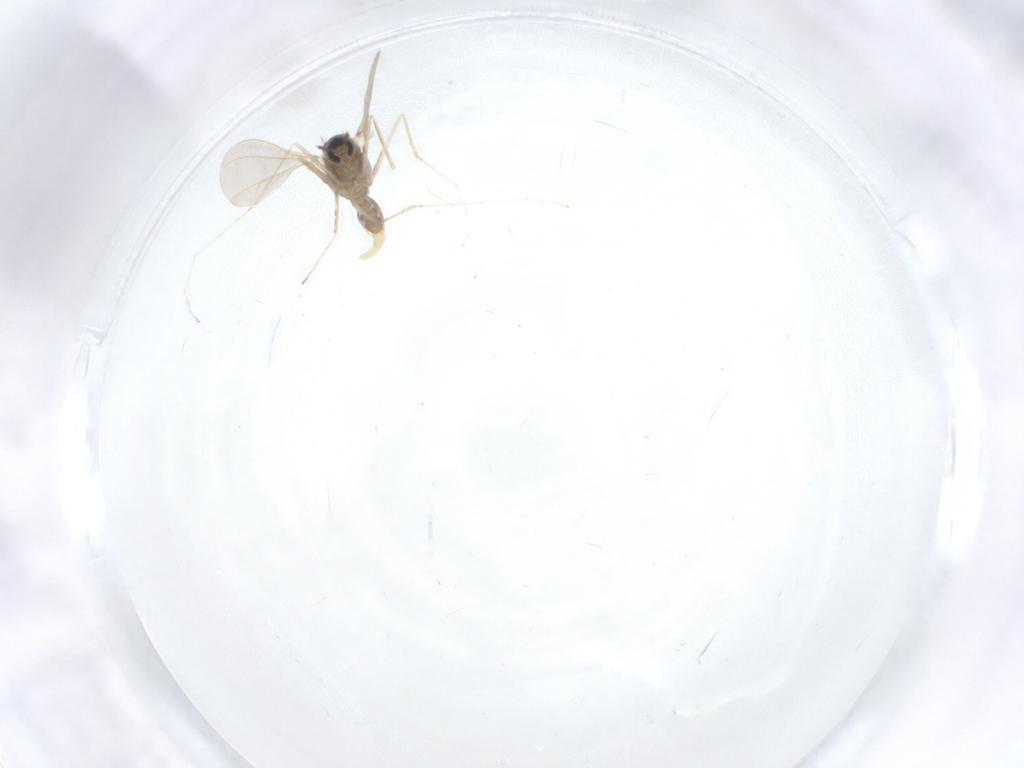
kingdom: Animalia
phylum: Arthropoda
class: Insecta
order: Diptera
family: Cecidomyiidae
